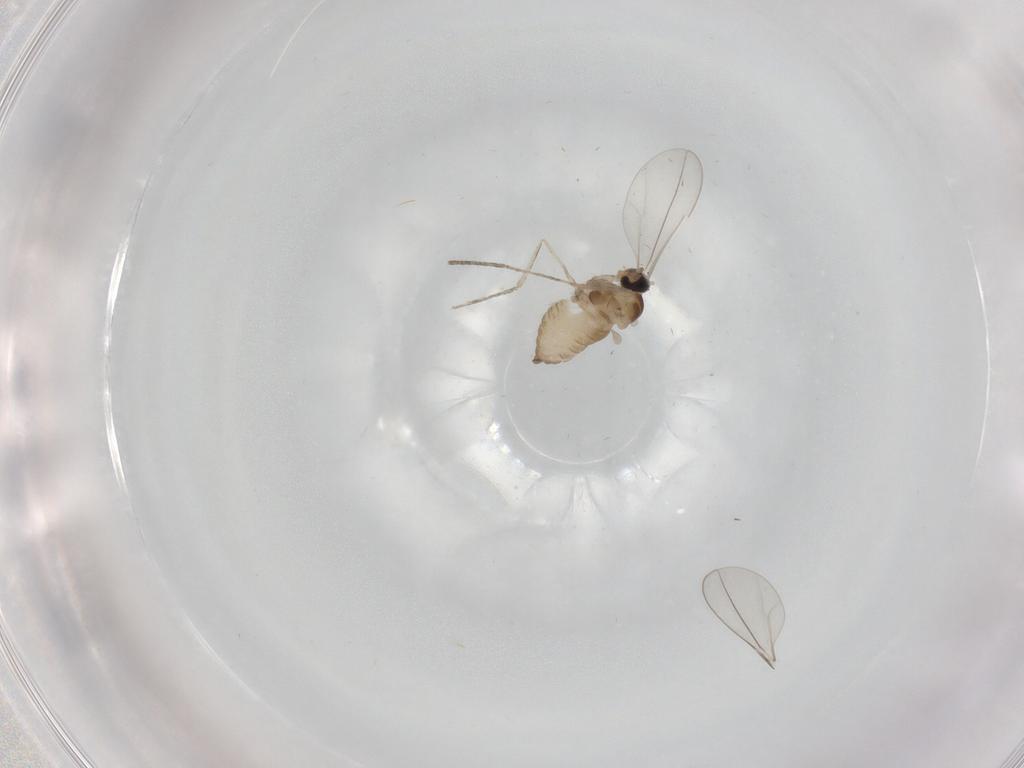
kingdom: Animalia
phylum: Arthropoda
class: Insecta
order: Diptera
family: Cecidomyiidae
